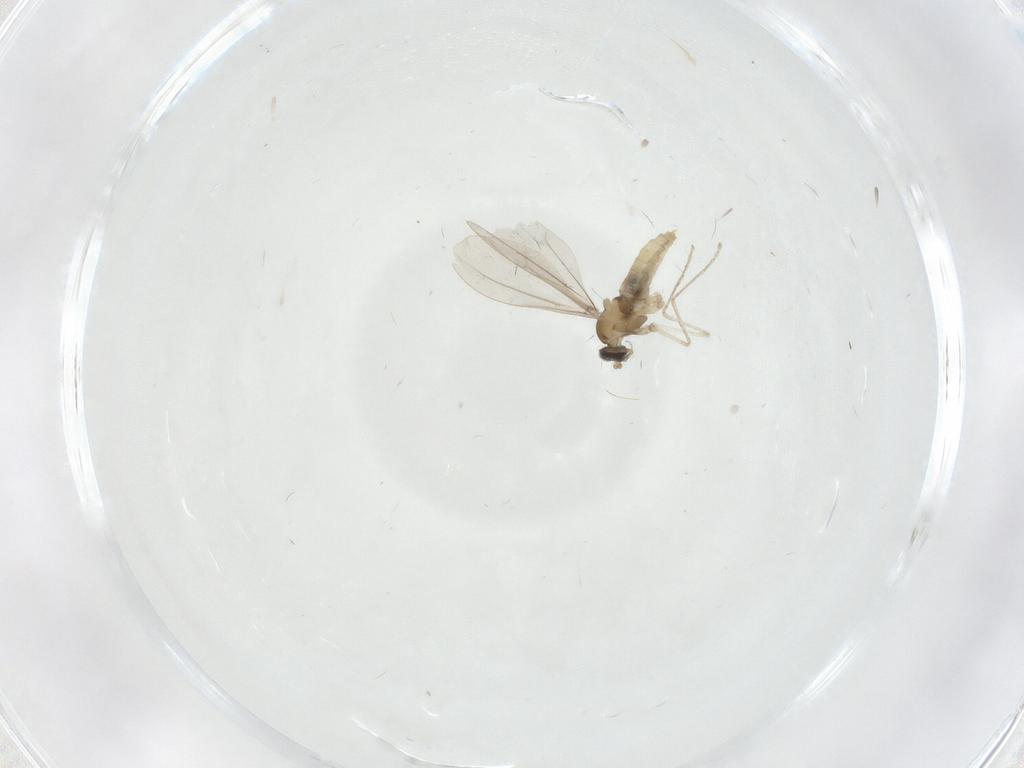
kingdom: Animalia
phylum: Arthropoda
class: Insecta
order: Diptera
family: Cecidomyiidae
